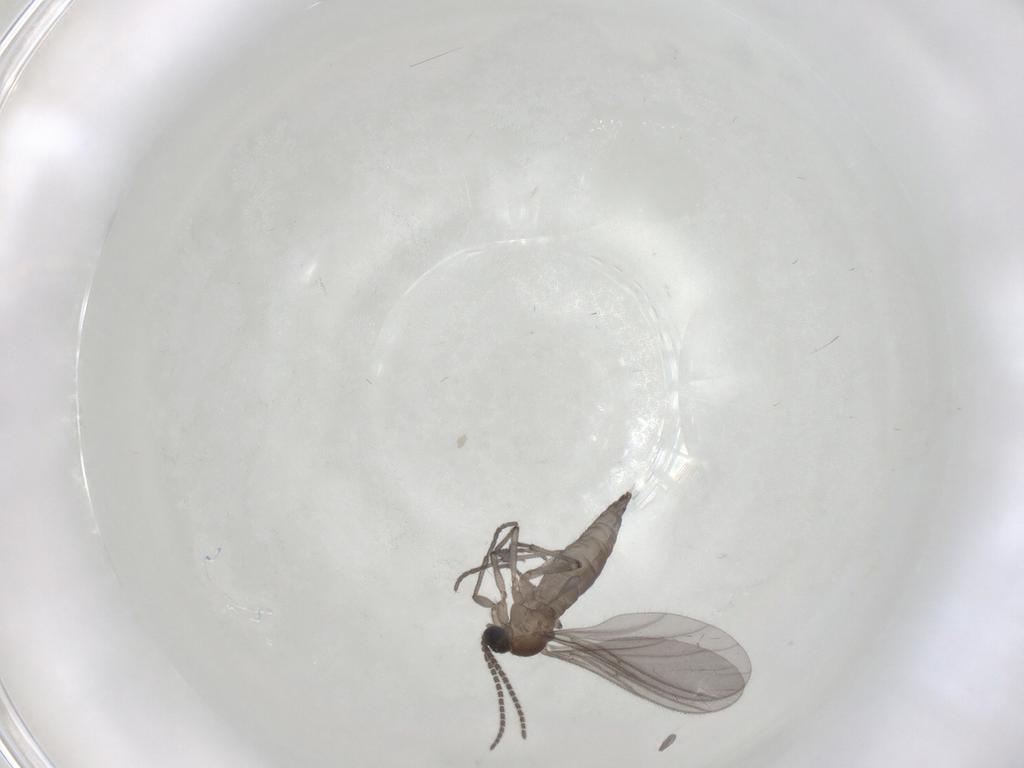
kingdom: Animalia
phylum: Arthropoda
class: Insecta
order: Diptera
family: Sciaridae
